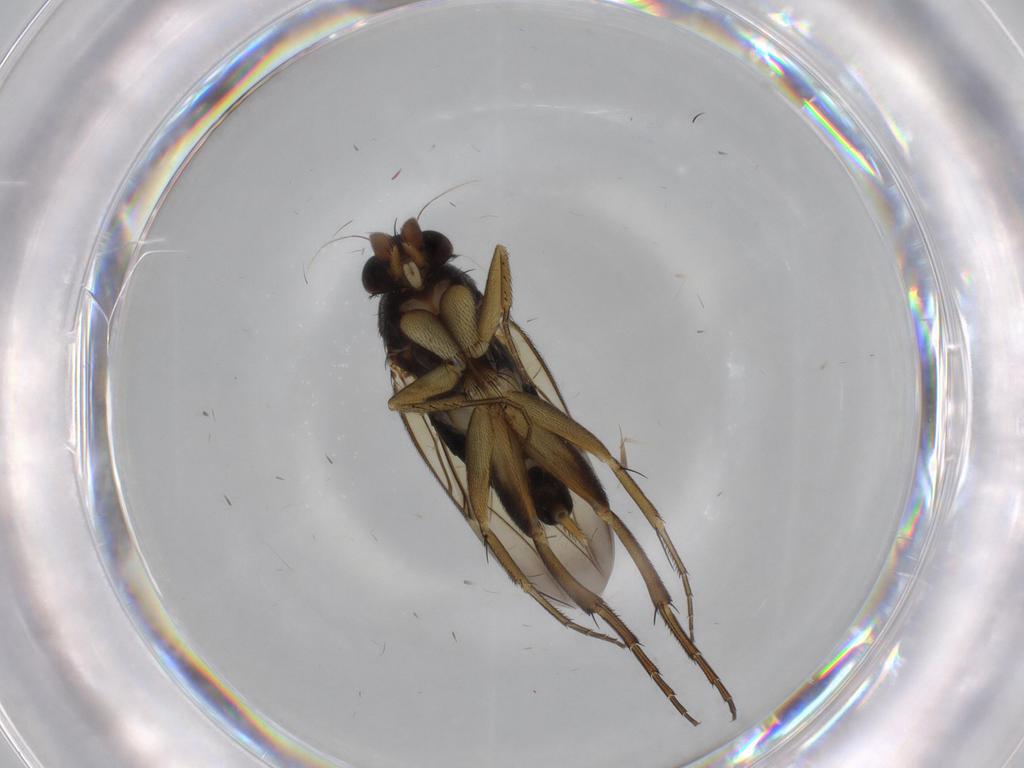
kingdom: Animalia
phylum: Arthropoda
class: Insecta
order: Diptera
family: Phoridae
